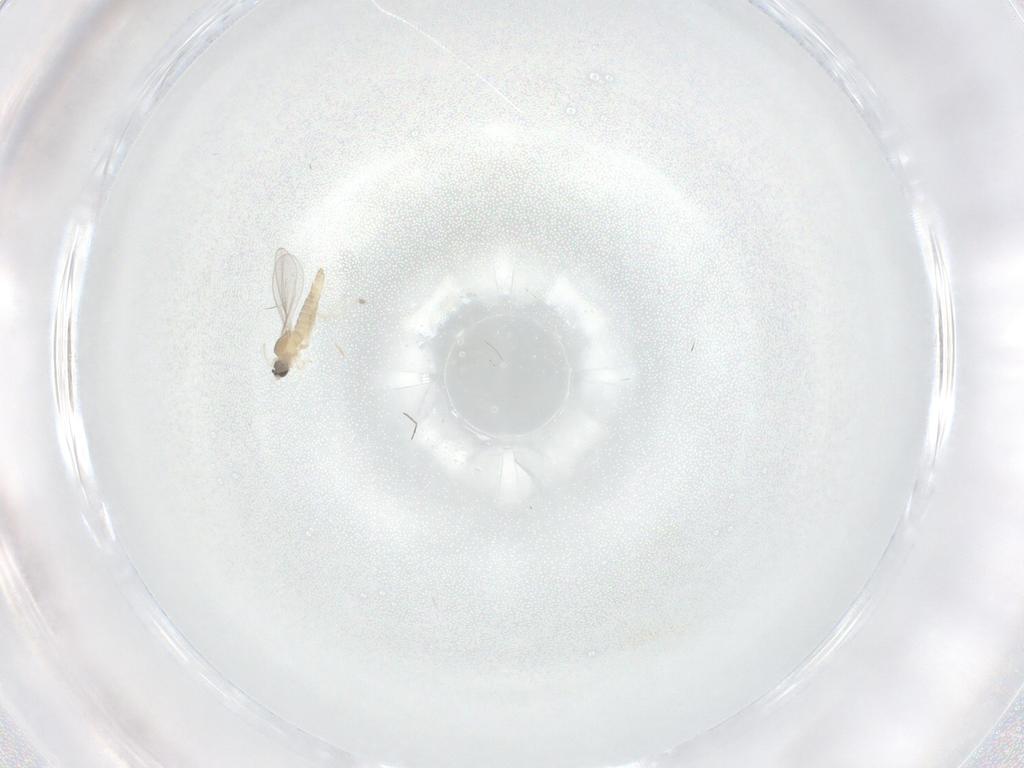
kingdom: Animalia
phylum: Arthropoda
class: Insecta
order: Diptera
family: Cecidomyiidae
